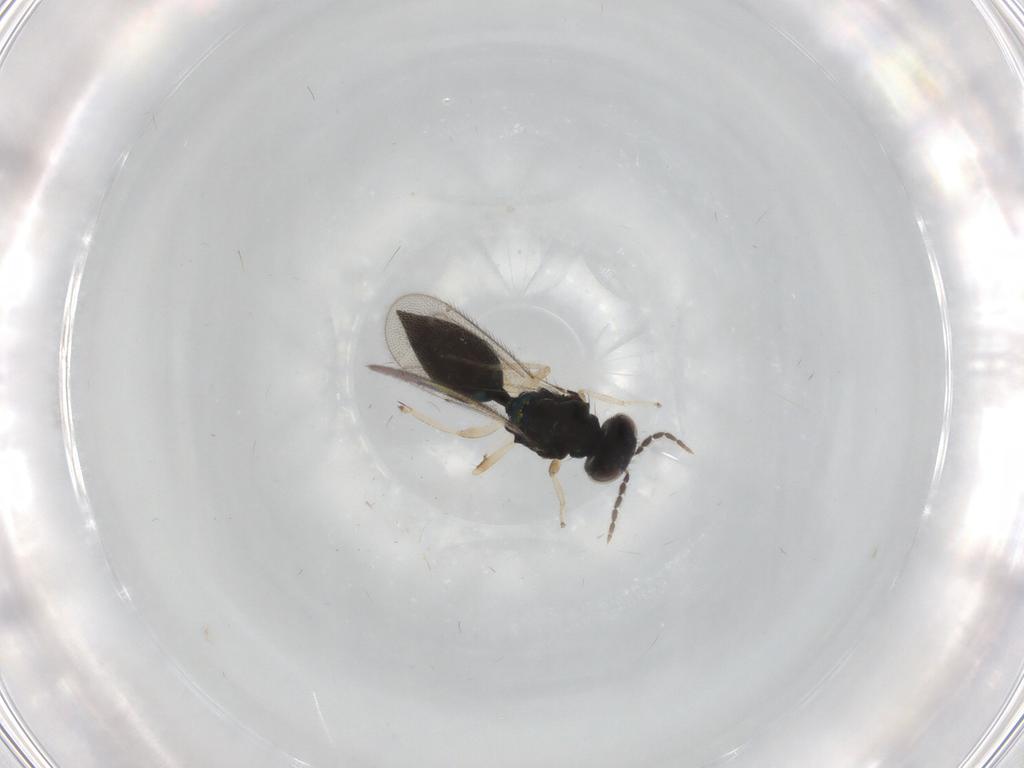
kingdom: Animalia
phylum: Arthropoda
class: Insecta
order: Hymenoptera
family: Eulophidae
